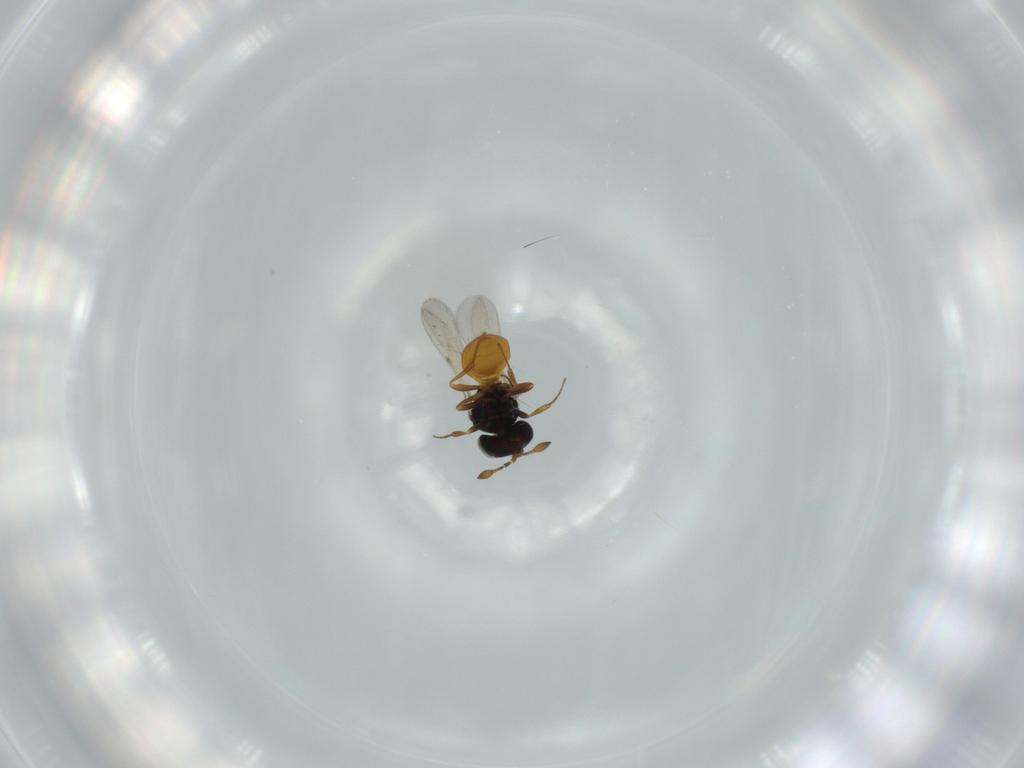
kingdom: Animalia
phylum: Arthropoda
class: Insecta
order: Hymenoptera
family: Scelionidae
